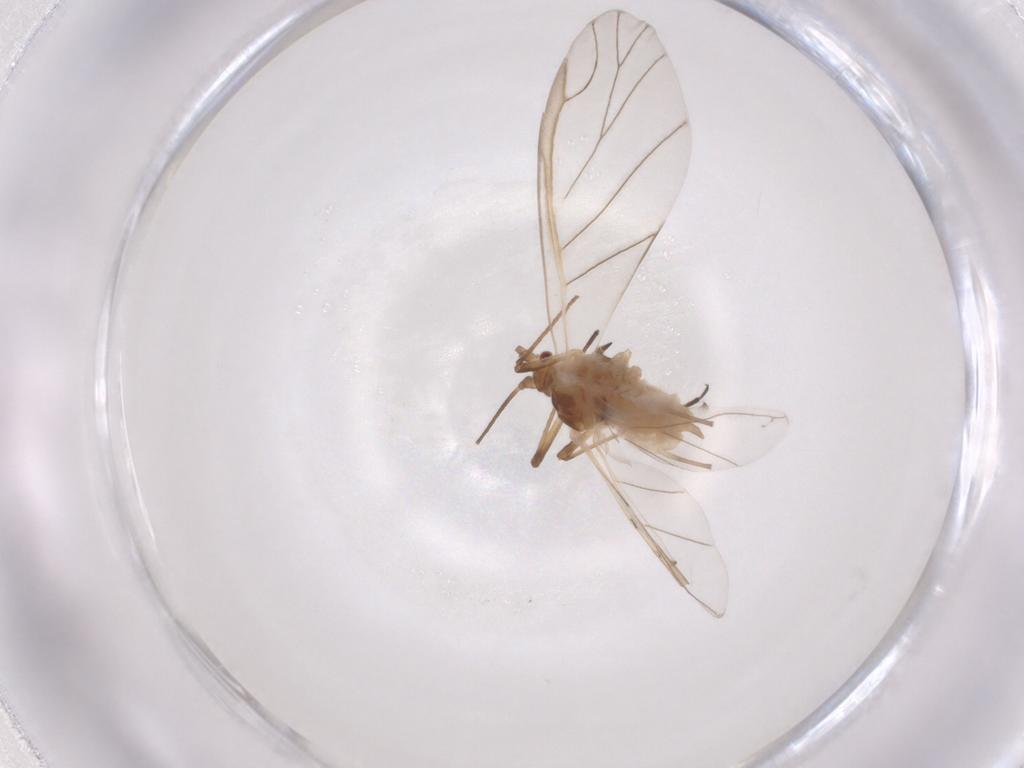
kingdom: Animalia
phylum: Arthropoda
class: Insecta
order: Hemiptera
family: Aphididae
